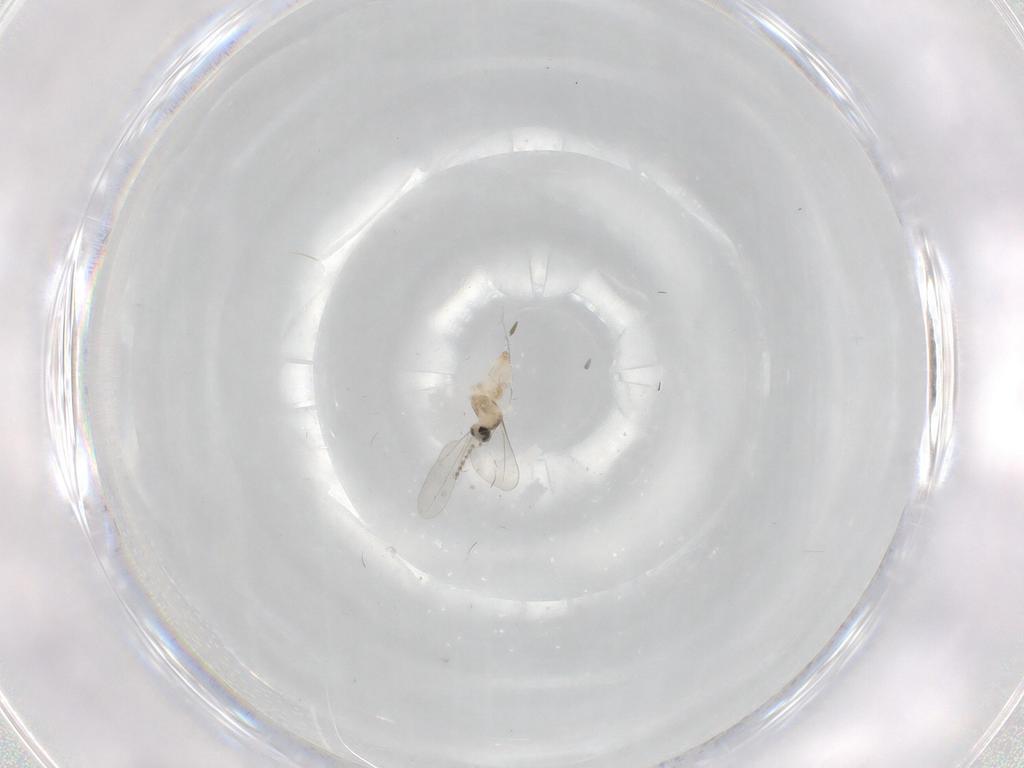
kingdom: Animalia
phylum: Arthropoda
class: Insecta
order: Diptera
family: Cecidomyiidae
